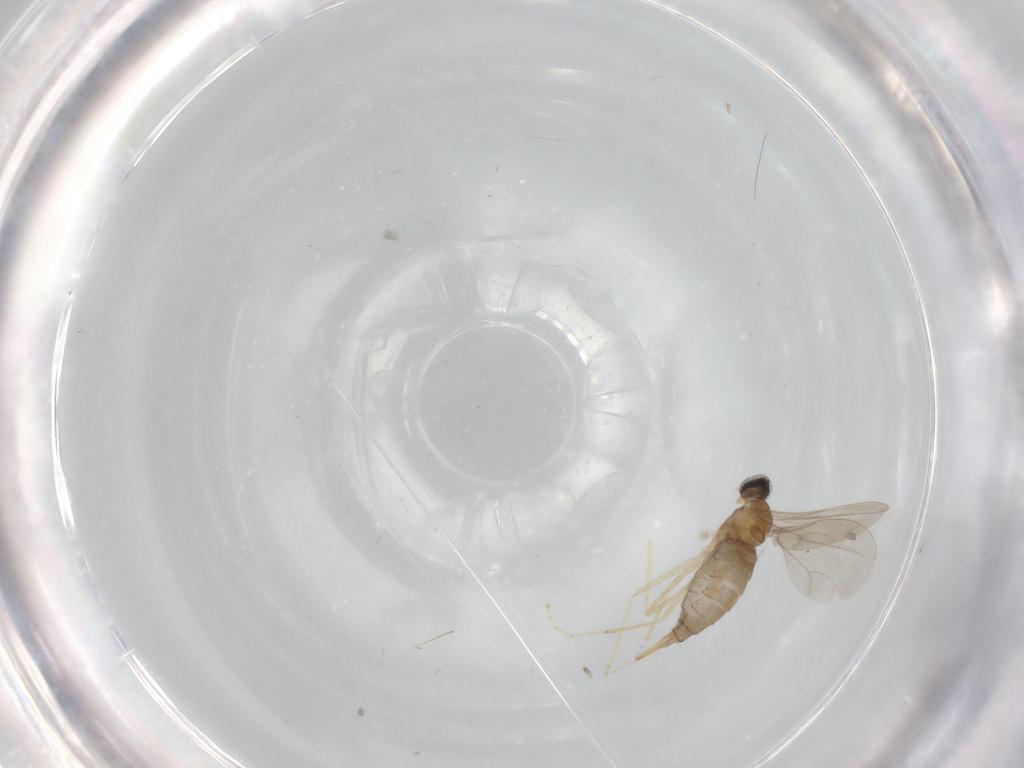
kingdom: Animalia
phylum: Arthropoda
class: Insecta
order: Diptera
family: Cecidomyiidae
